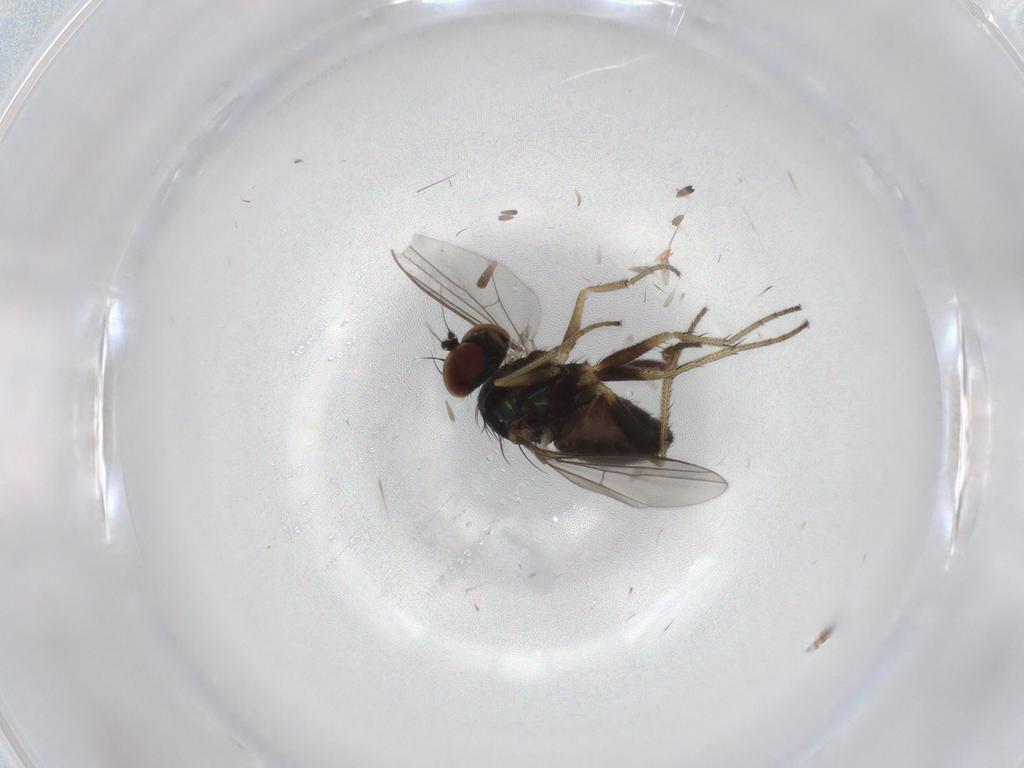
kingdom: Animalia
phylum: Arthropoda
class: Insecta
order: Diptera
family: Dolichopodidae
